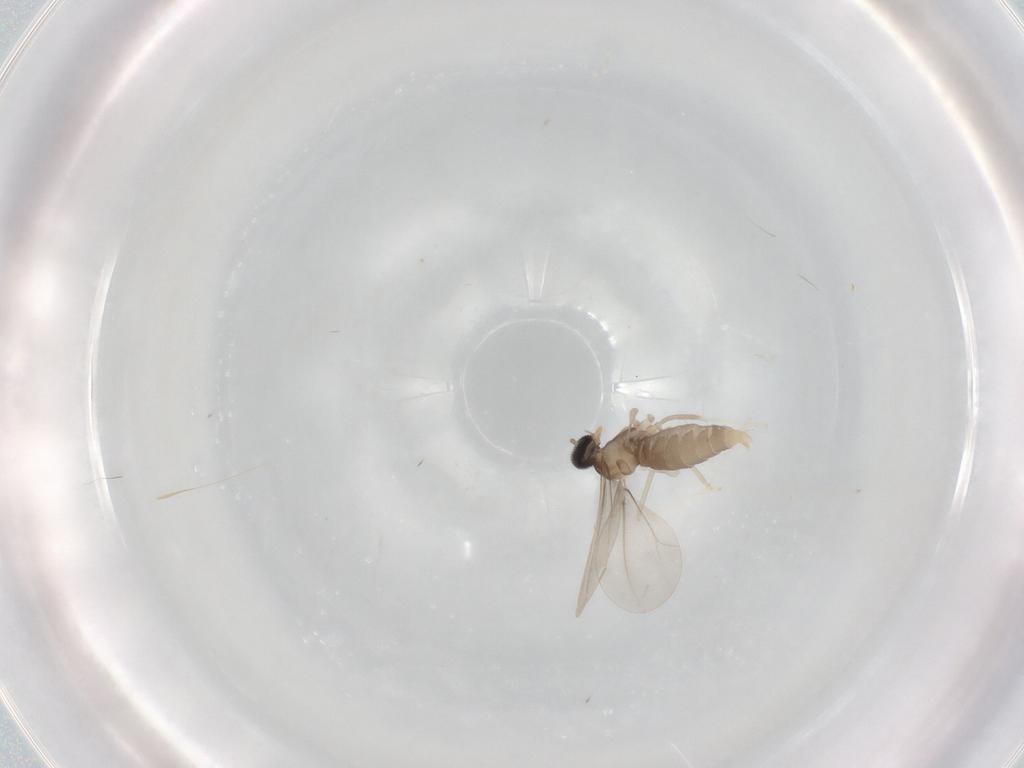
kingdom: Animalia
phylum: Arthropoda
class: Insecta
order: Diptera
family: Cecidomyiidae
